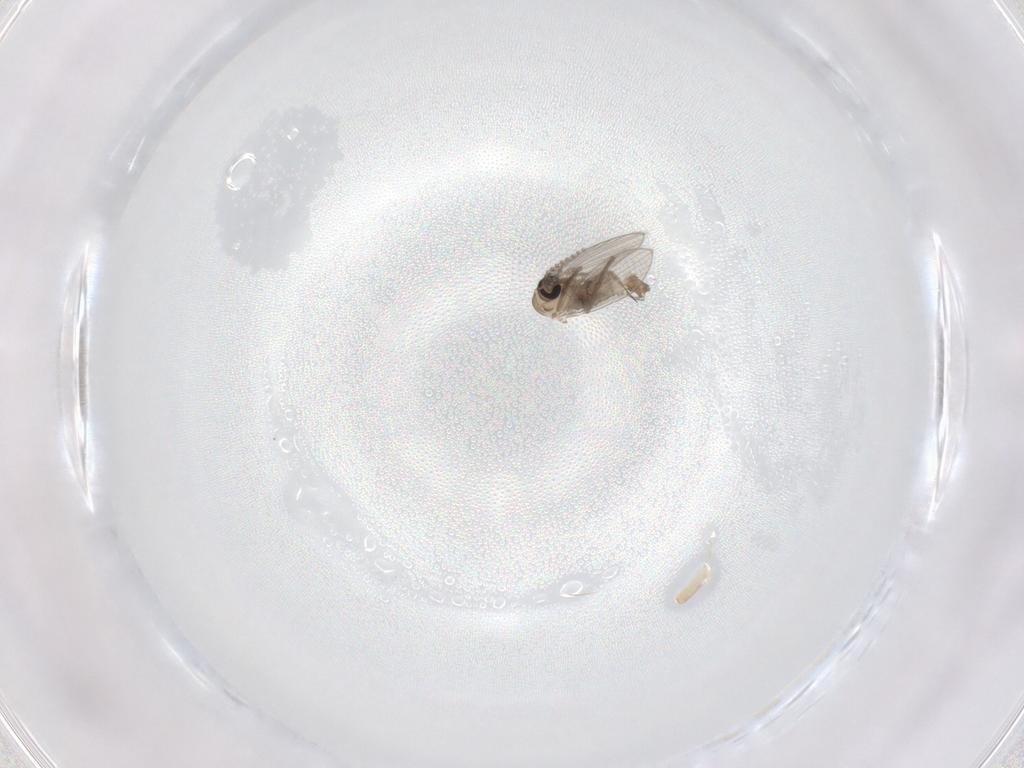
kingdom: Animalia
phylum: Arthropoda
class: Insecta
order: Diptera
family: Psychodidae
